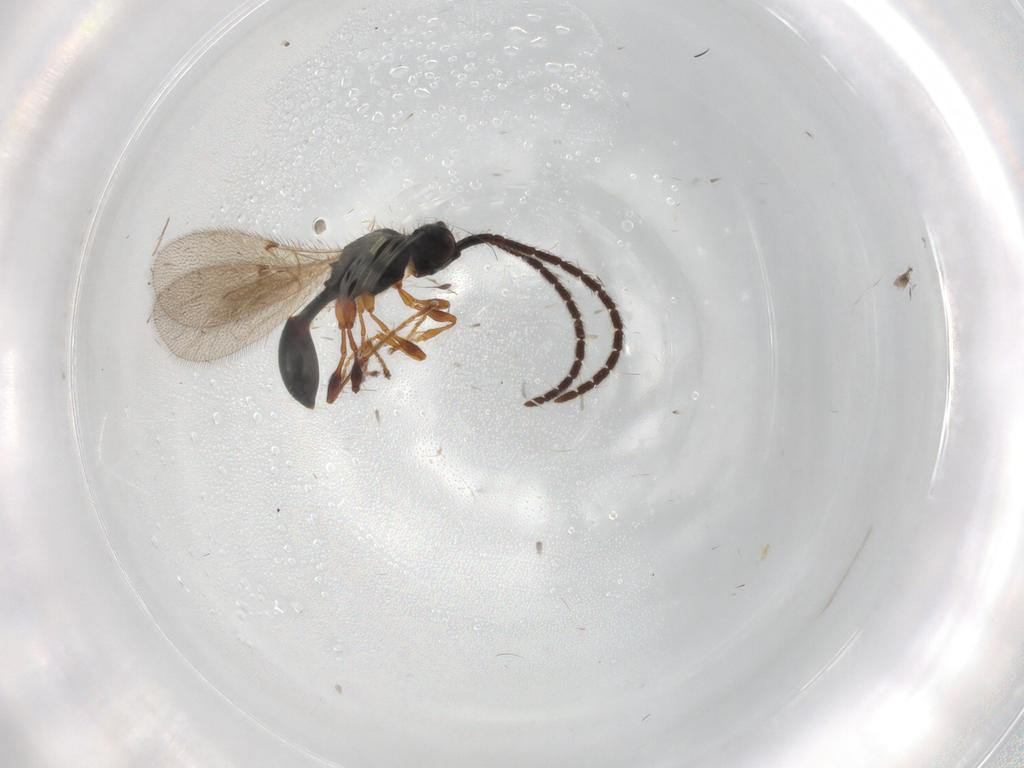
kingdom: Animalia
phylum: Arthropoda
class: Insecta
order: Hymenoptera
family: Diapriidae
